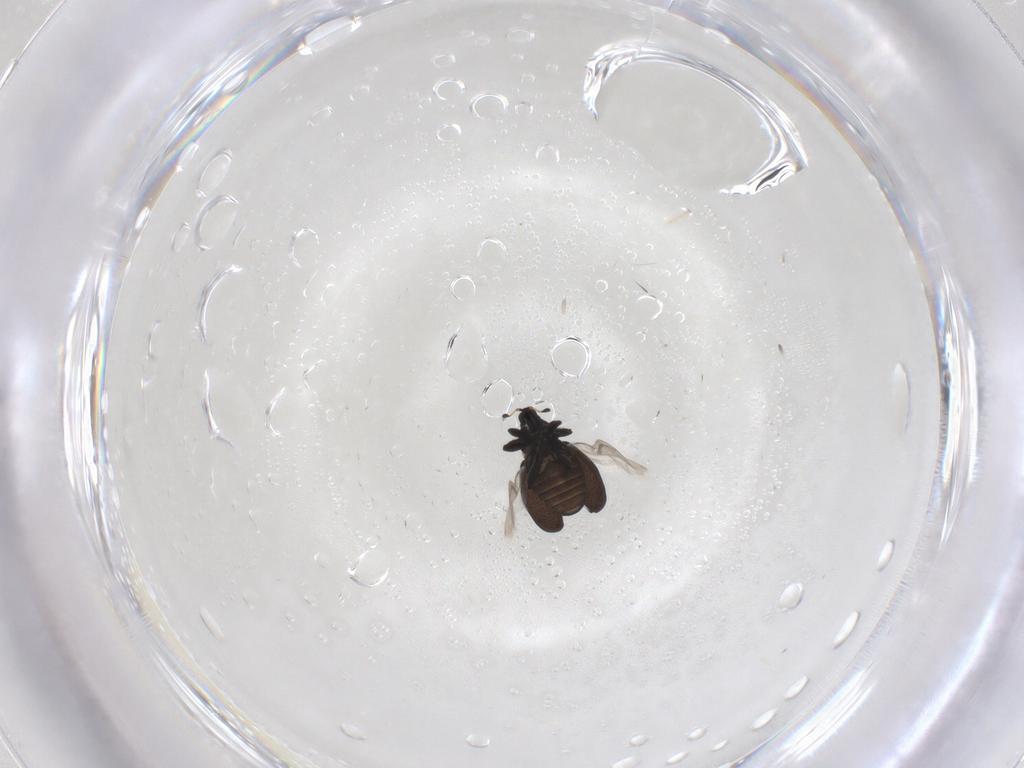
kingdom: Animalia
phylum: Arthropoda
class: Insecta
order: Coleoptera
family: Curculionidae
